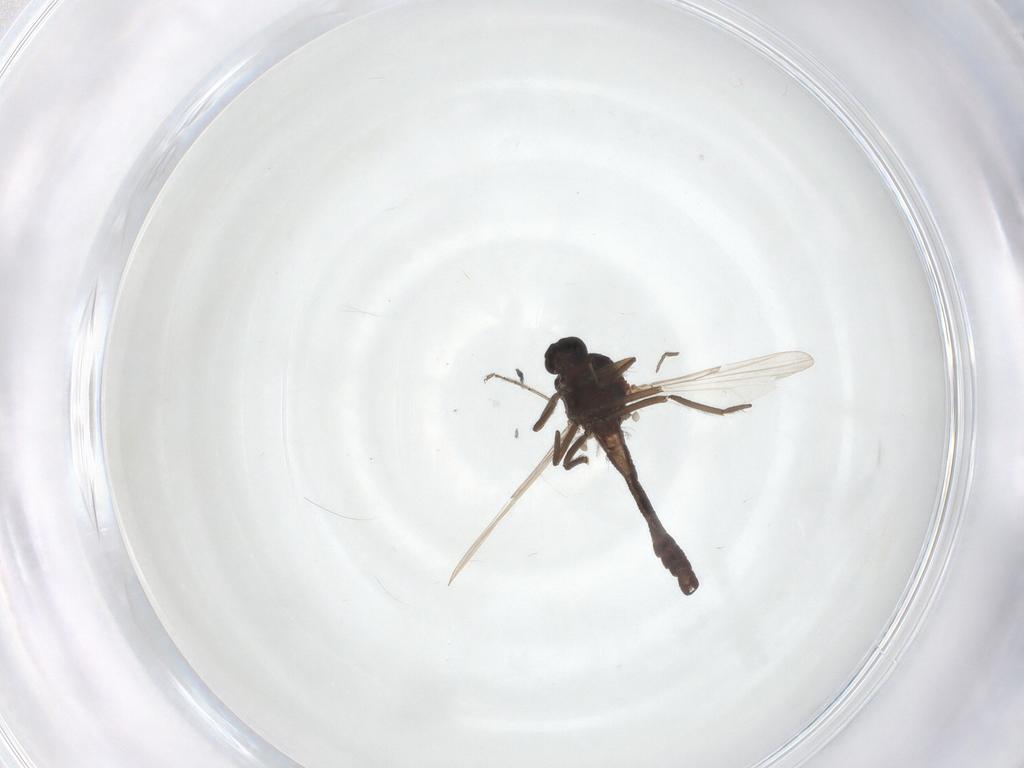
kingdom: Animalia
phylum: Arthropoda
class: Insecta
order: Diptera
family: Ceratopogonidae
